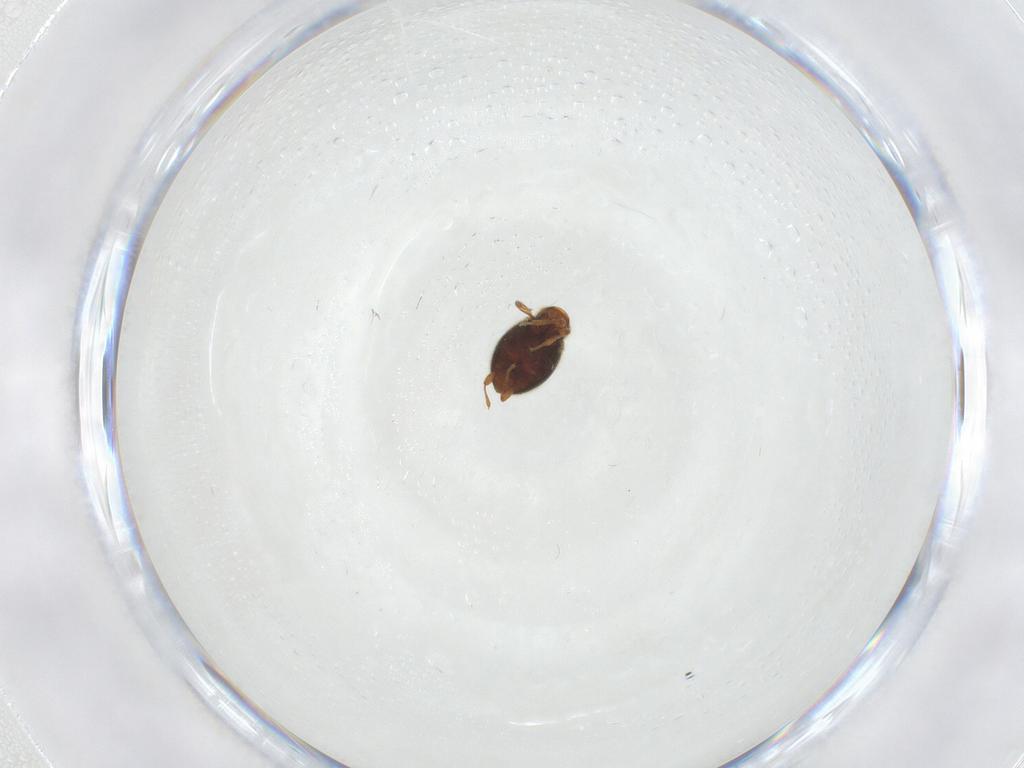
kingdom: Animalia
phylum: Arthropoda
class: Insecta
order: Coleoptera
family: Staphylinidae
